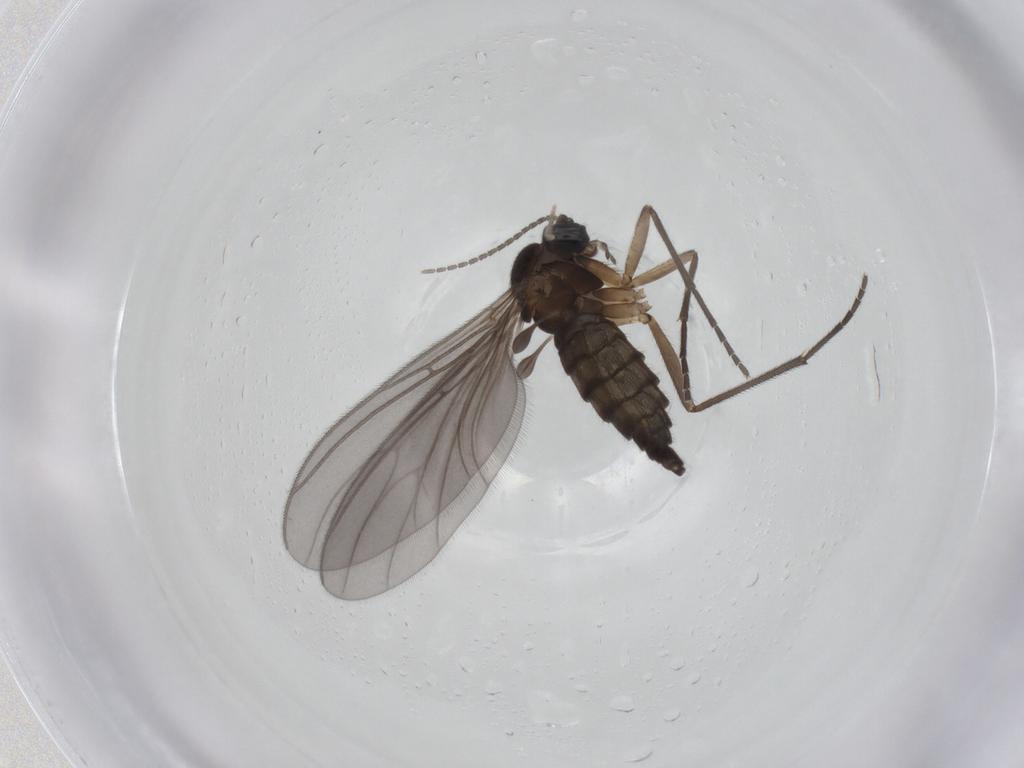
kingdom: Animalia
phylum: Arthropoda
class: Insecta
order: Diptera
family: Sciaridae
